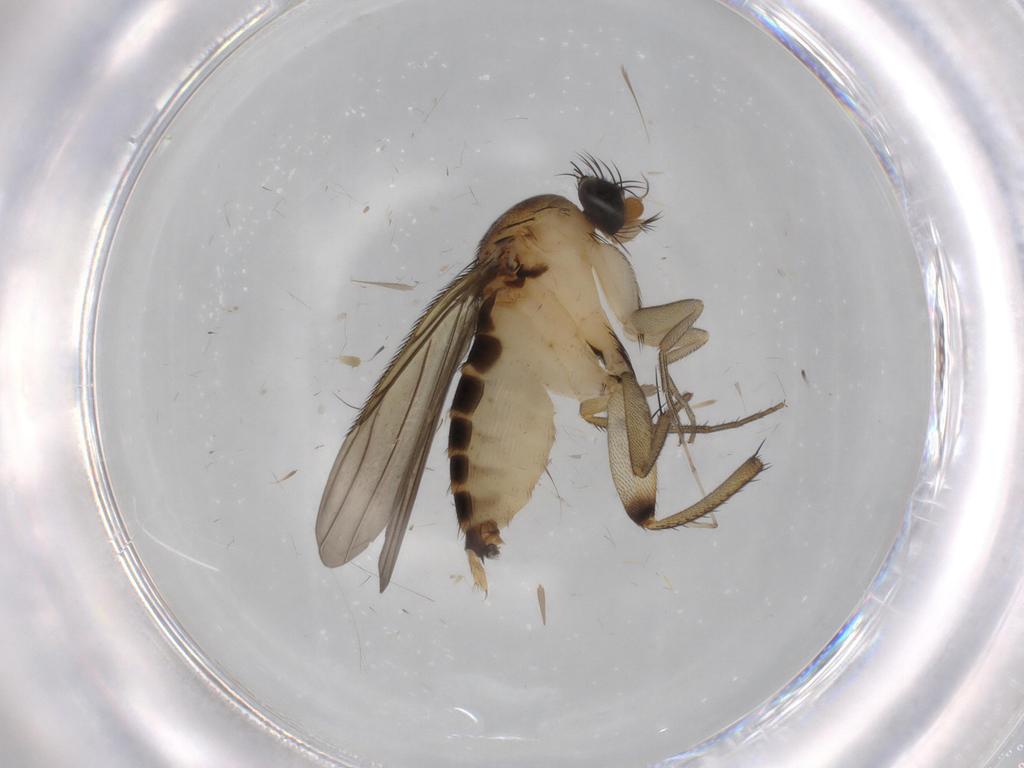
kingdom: Animalia
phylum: Arthropoda
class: Insecta
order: Diptera
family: Psychodidae
